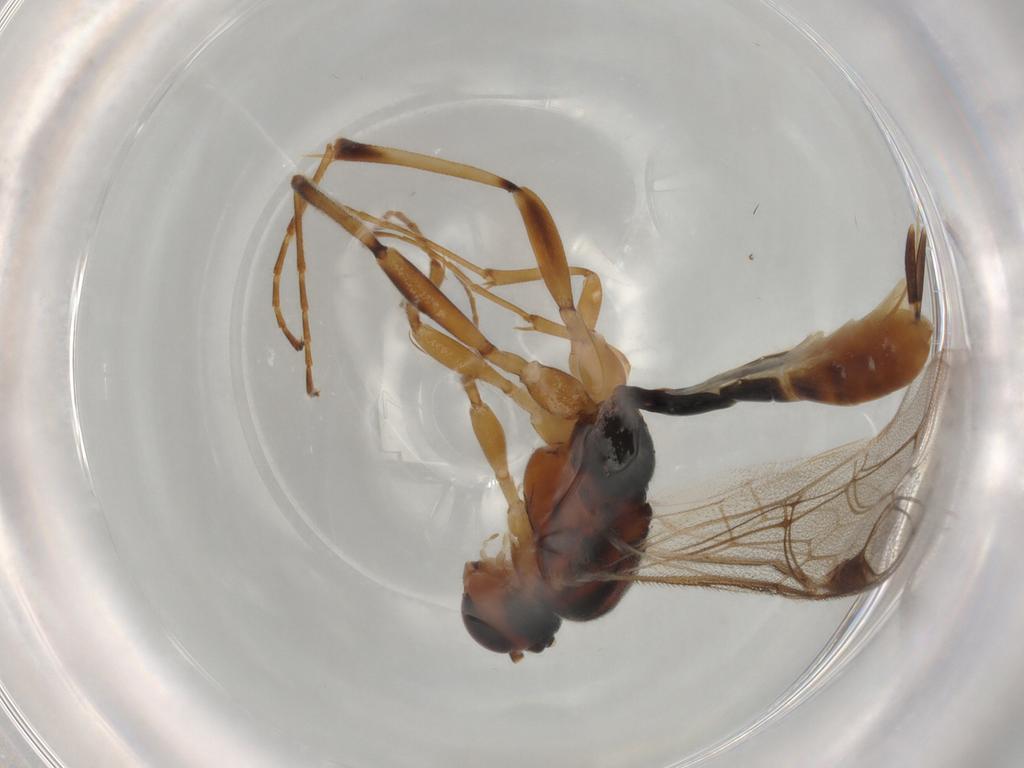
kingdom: Animalia
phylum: Arthropoda
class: Insecta
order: Hymenoptera
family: Ichneumonidae
